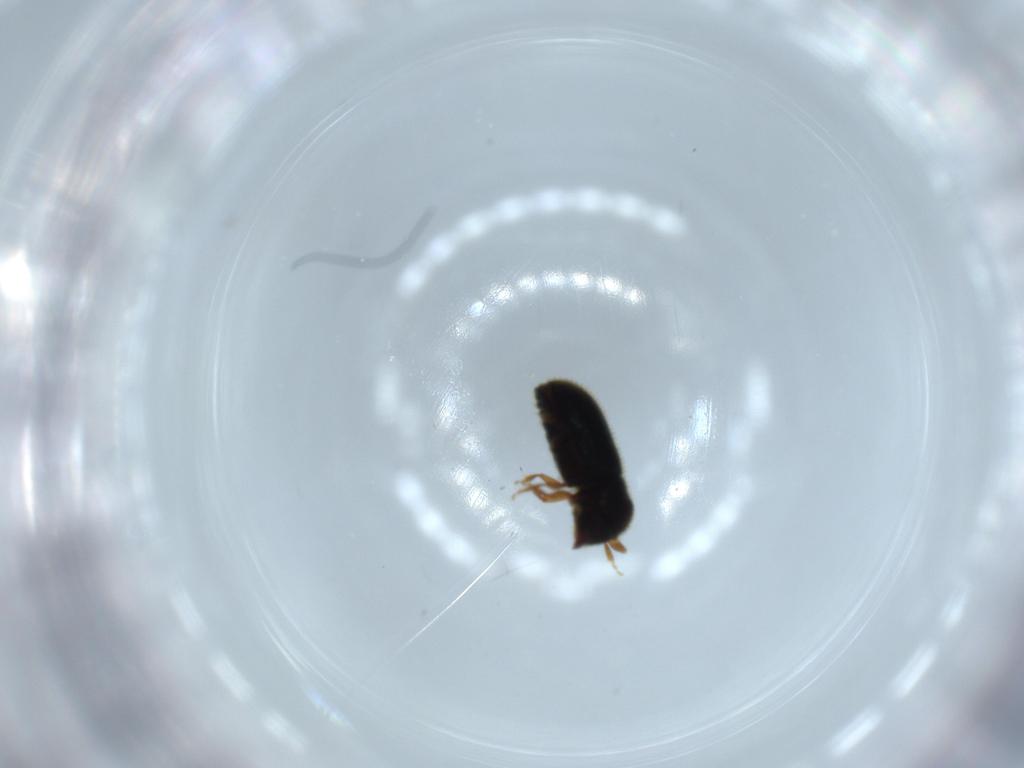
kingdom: Animalia
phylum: Arthropoda
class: Insecta
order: Coleoptera
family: Curculionidae
